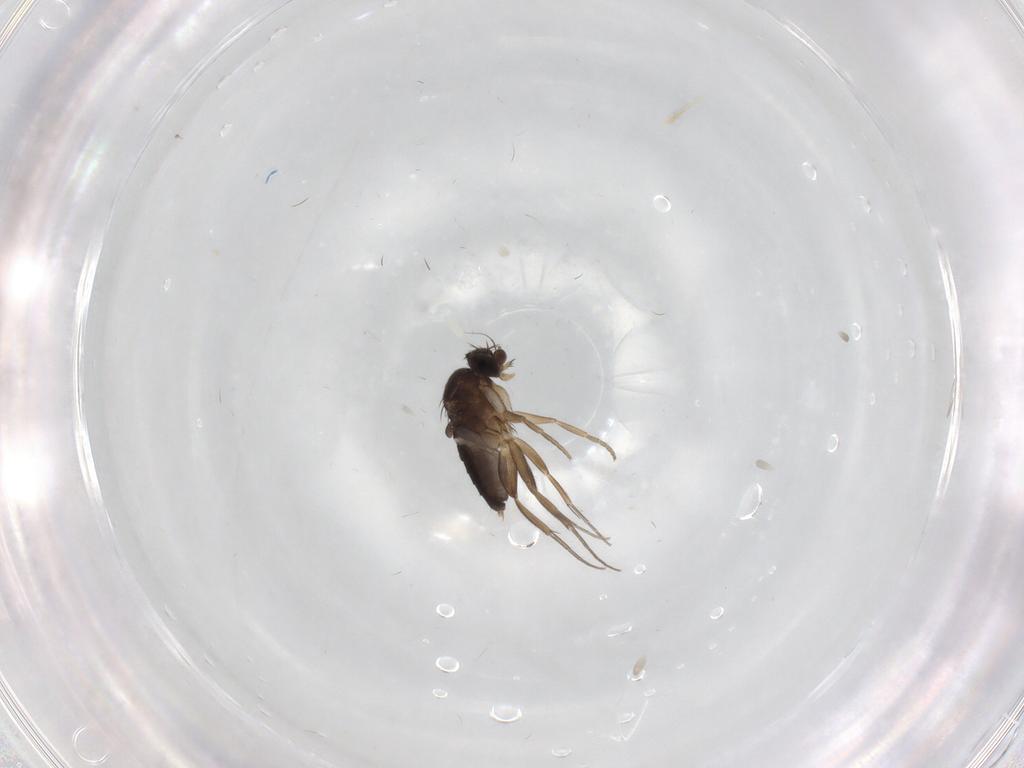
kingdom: Animalia
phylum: Arthropoda
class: Insecta
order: Diptera
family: Phoridae
